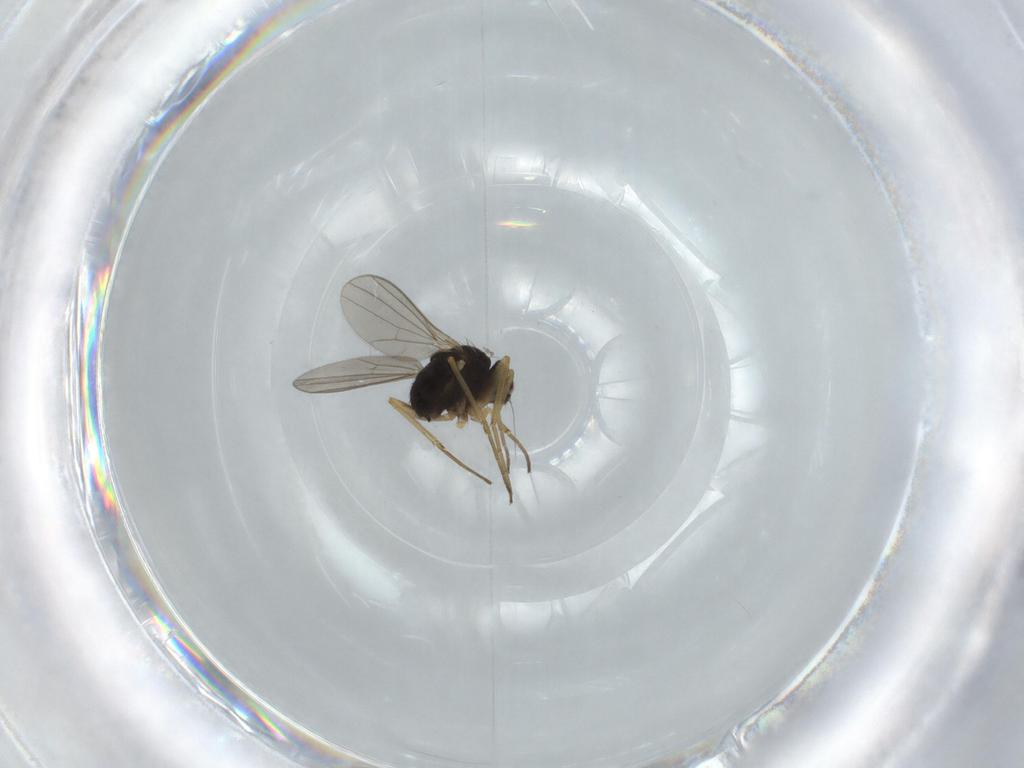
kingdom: Animalia
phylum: Arthropoda
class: Insecta
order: Diptera
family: Dolichopodidae
